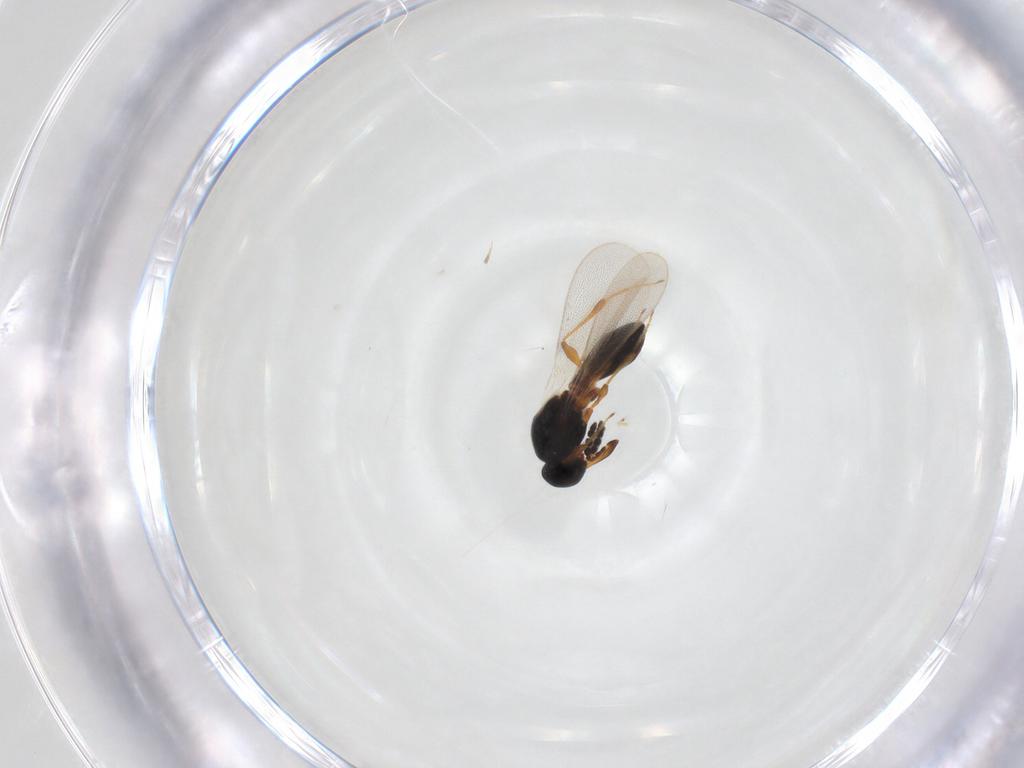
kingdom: Animalia
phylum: Arthropoda
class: Insecta
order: Diptera
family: Chironomidae
